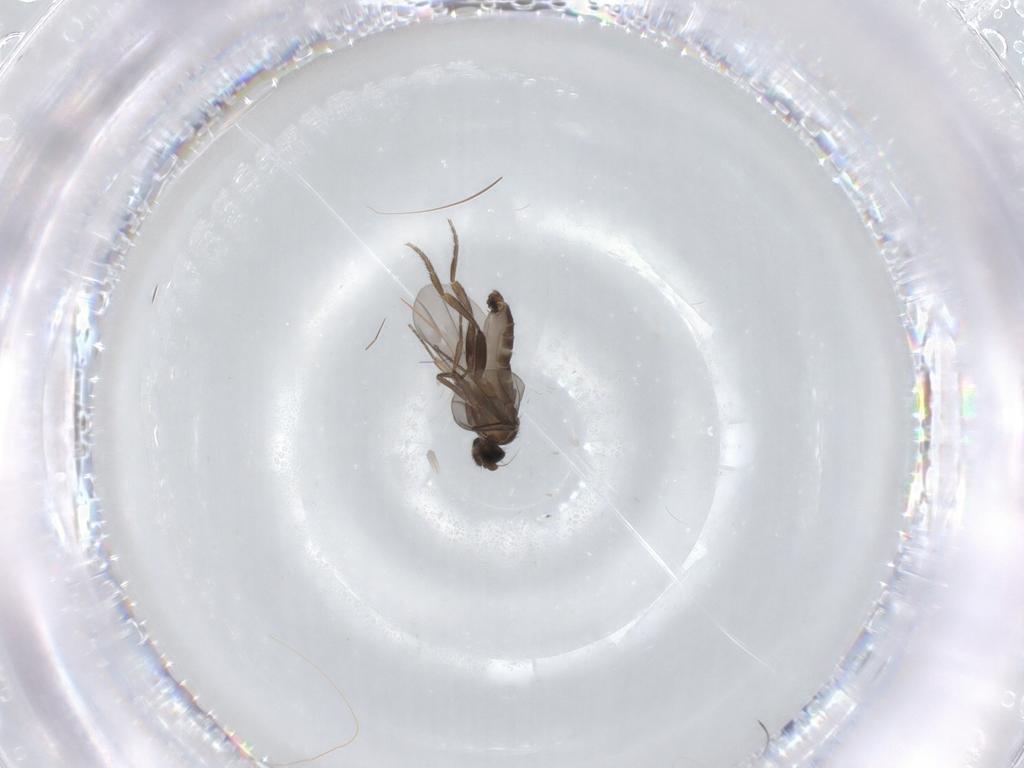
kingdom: Animalia
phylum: Arthropoda
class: Insecta
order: Diptera
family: Phoridae
